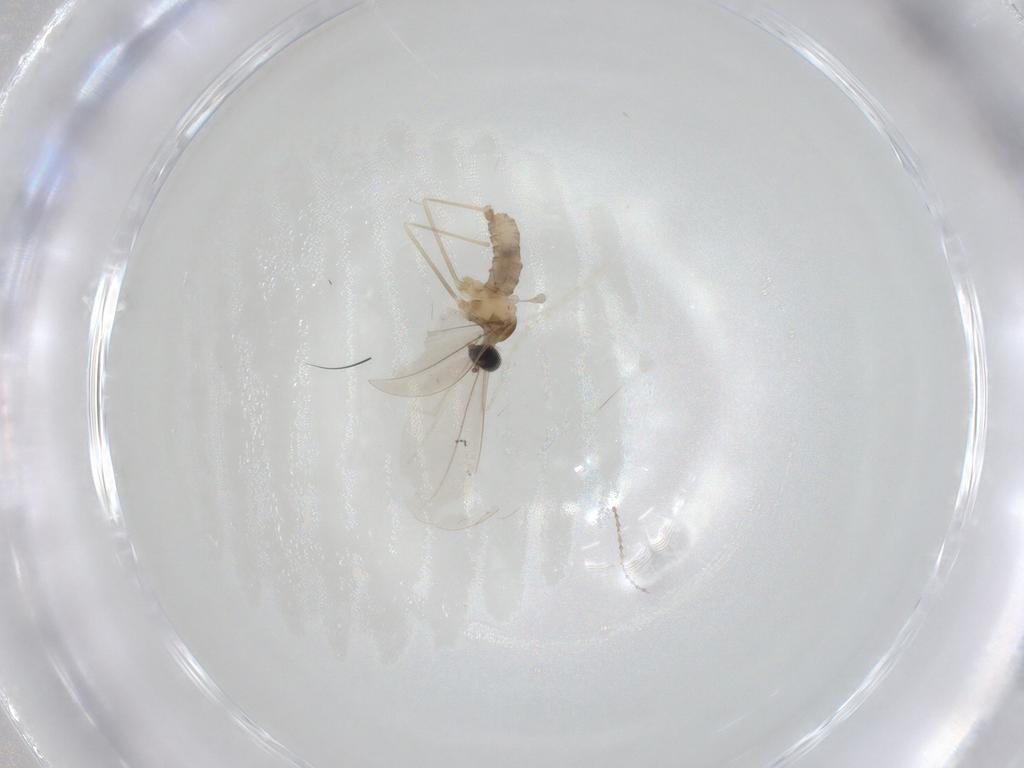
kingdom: Animalia
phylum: Arthropoda
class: Insecta
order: Diptera
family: Cecidomyiidae
